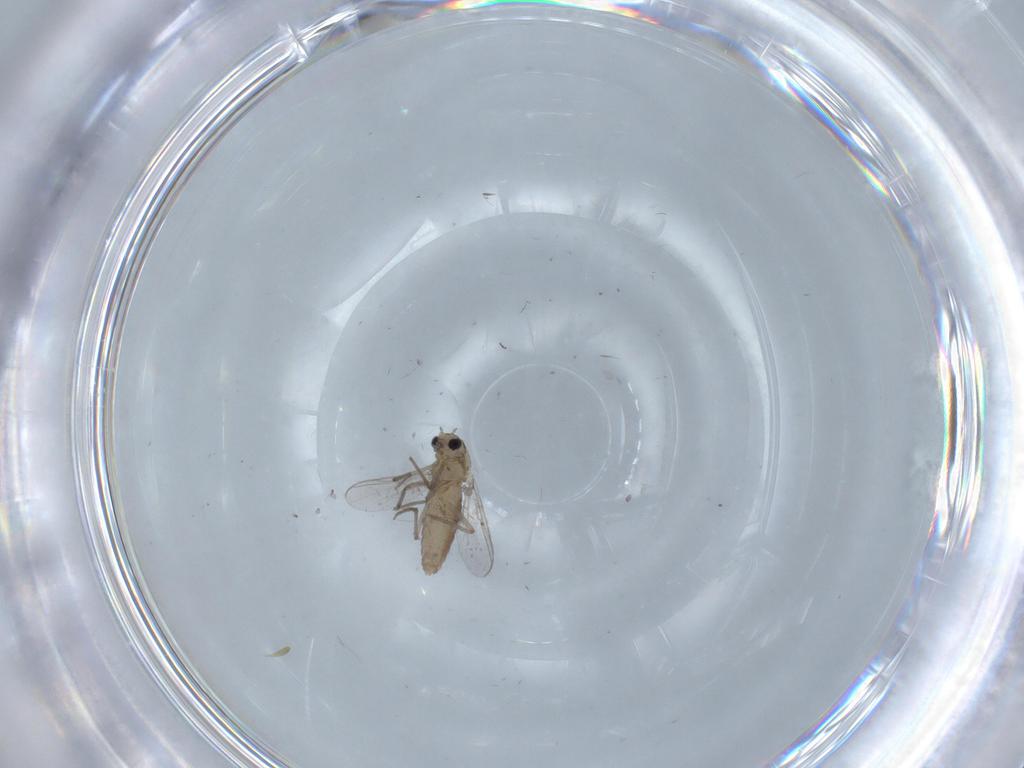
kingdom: Animalia
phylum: Arthropoda
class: Insecta
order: Diptera
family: Chironomidae
